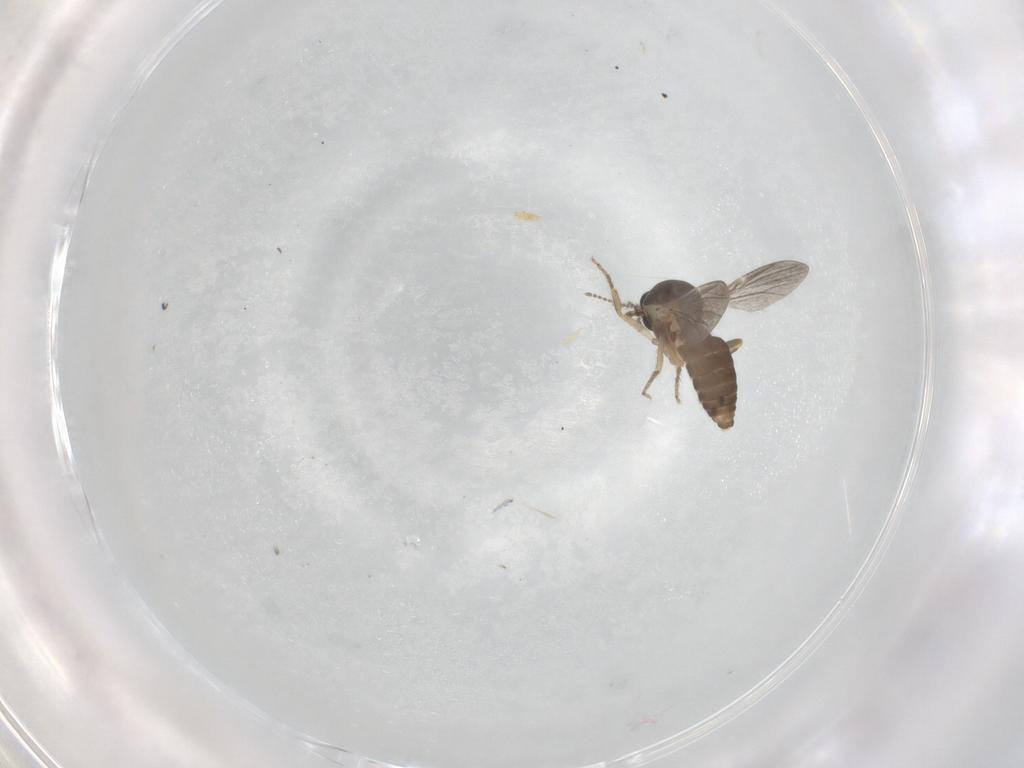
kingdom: Animalia
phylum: Arthropoda
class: Insecta
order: Diptera
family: Ceratopogonidae
